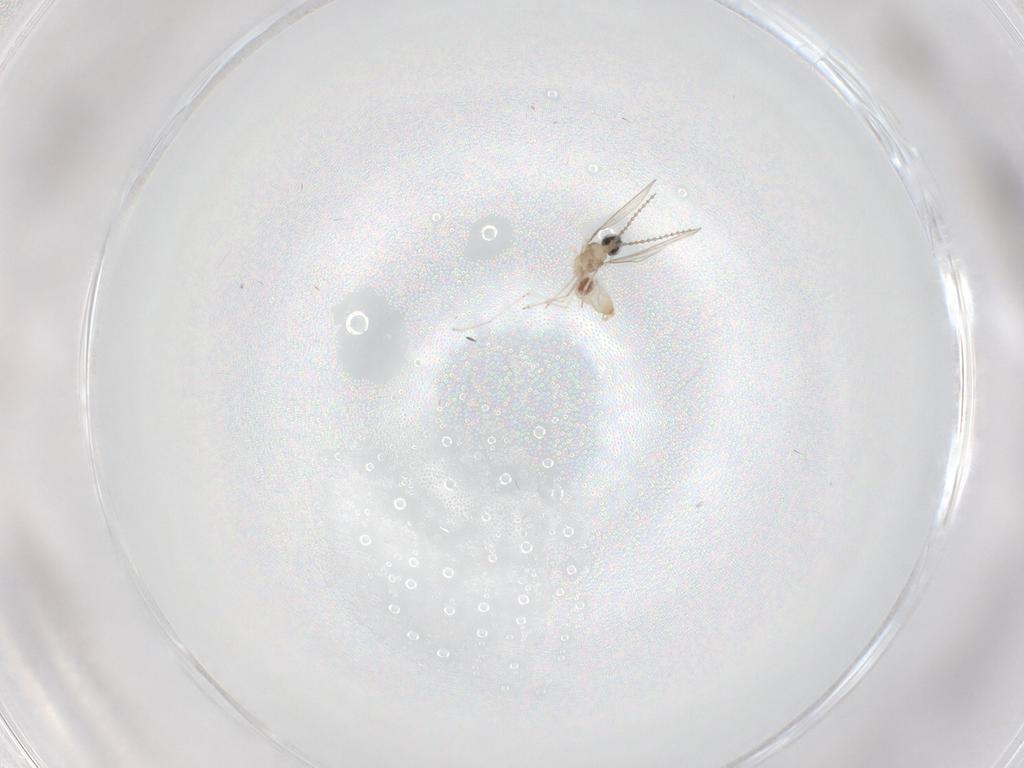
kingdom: Animalia
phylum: Arthropoda
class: Insecta
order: Diptera
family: Cecidomyiidae
